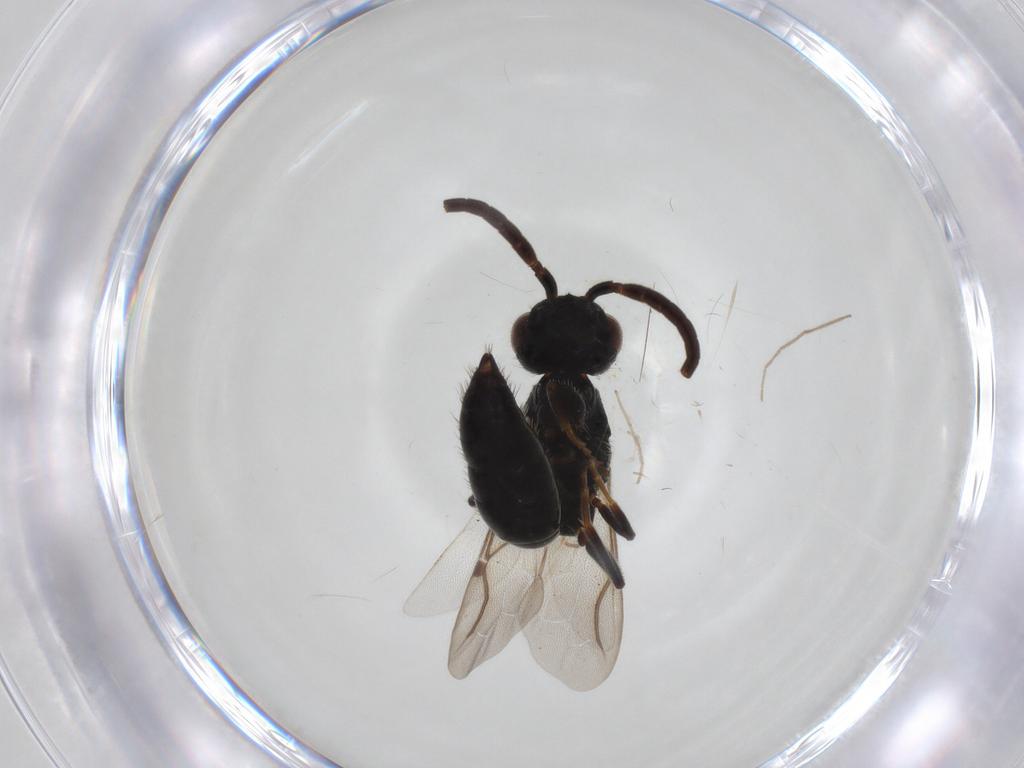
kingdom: Animalia
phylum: Arthropoda
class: Insecta
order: Hymenoptera
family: Bethylidae
